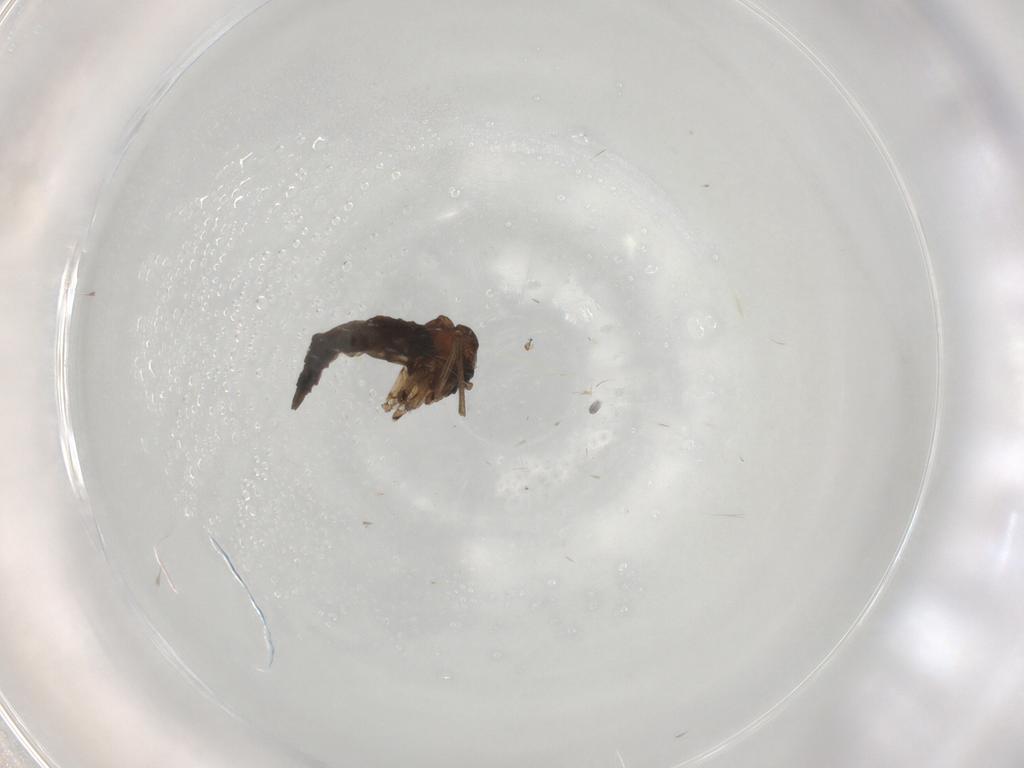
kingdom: Animalia
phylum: Arthropoda
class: Insecta
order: Diptera
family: Sciaridae
